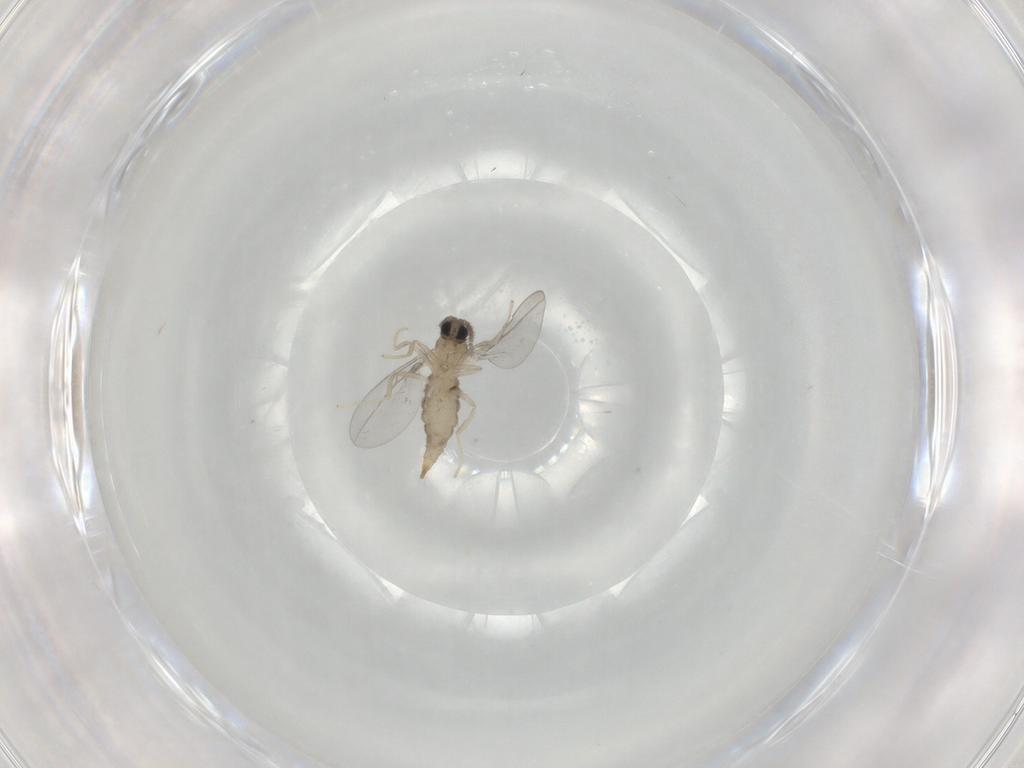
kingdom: Animalia
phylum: Arthropoda
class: Insecta
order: Diptera
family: Cecidomyiidae
